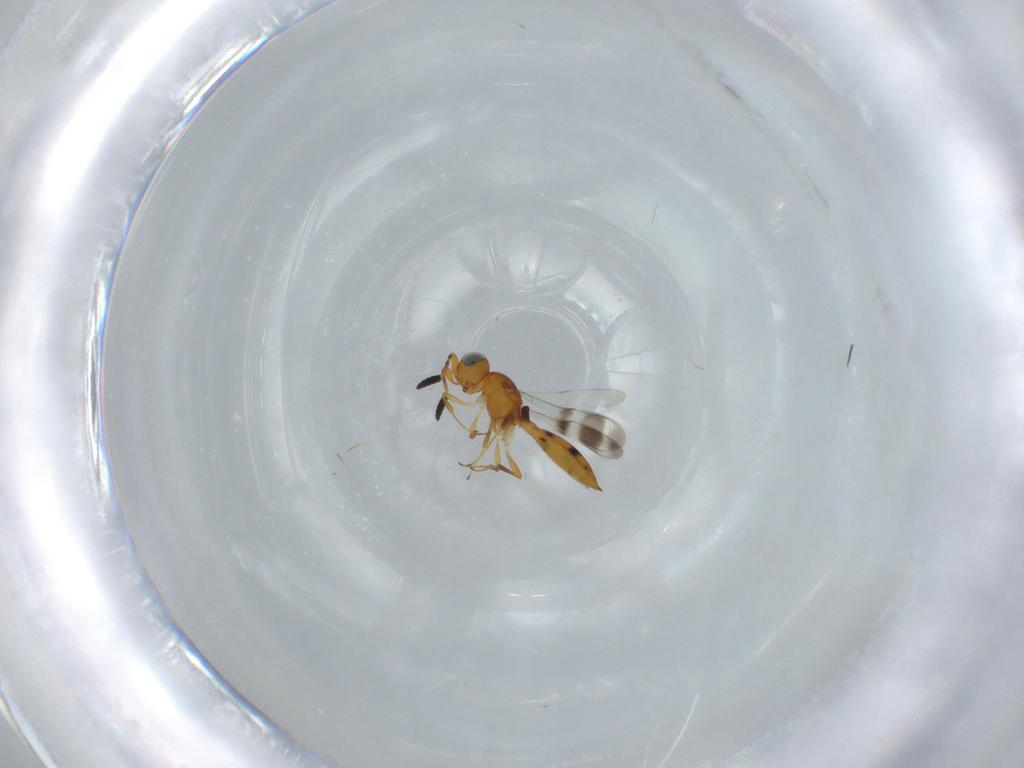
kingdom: Animalia
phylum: Arthropoda
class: Insecta
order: Hymenoptera
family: Scelionidae
